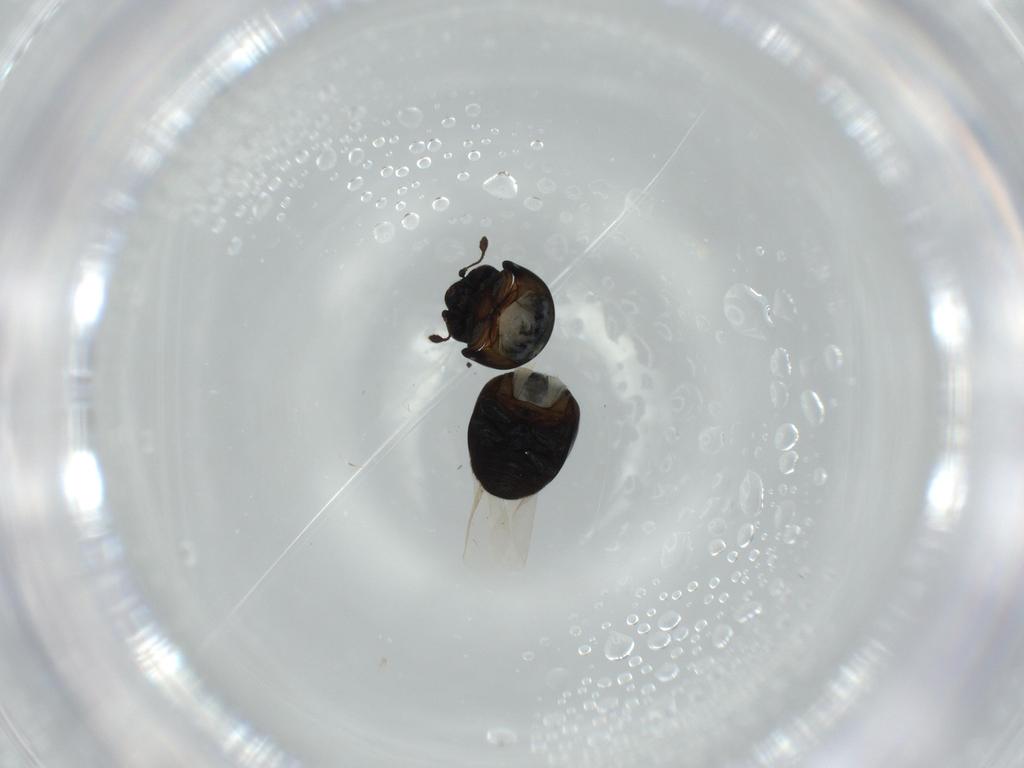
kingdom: Animalia
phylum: Arthropoda
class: Insecta
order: Coleoptera
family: Cybocephalidae
